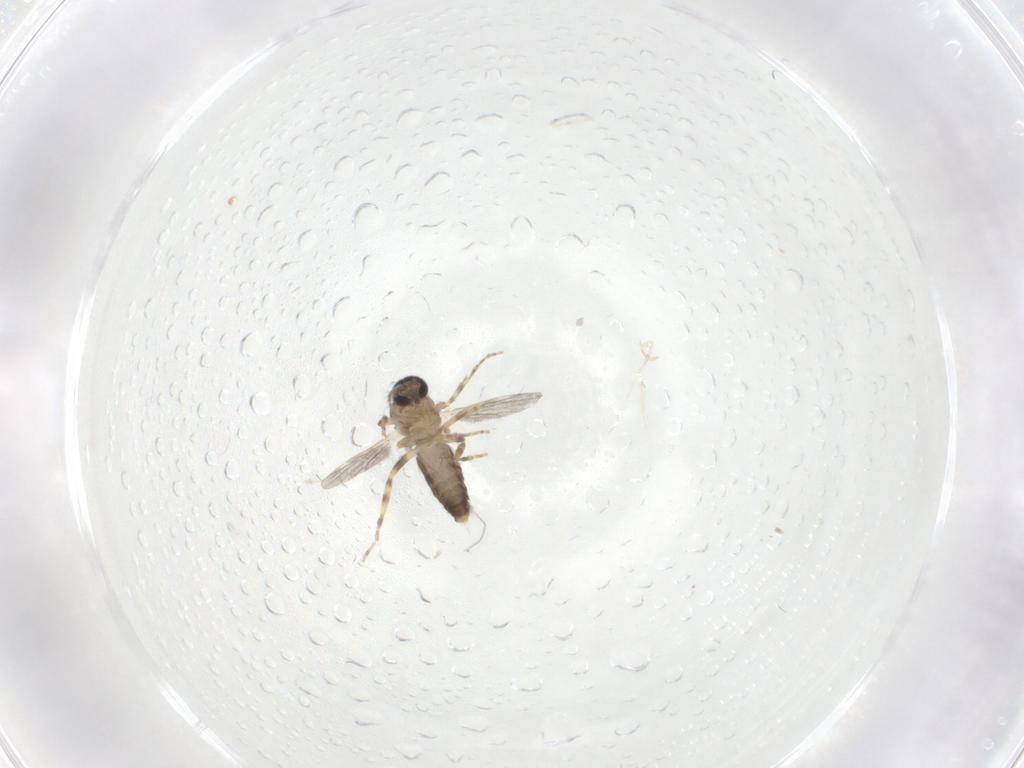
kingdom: Animalia
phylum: Arthropoda
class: Insecta
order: Diptera
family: Ceratopogonidae
